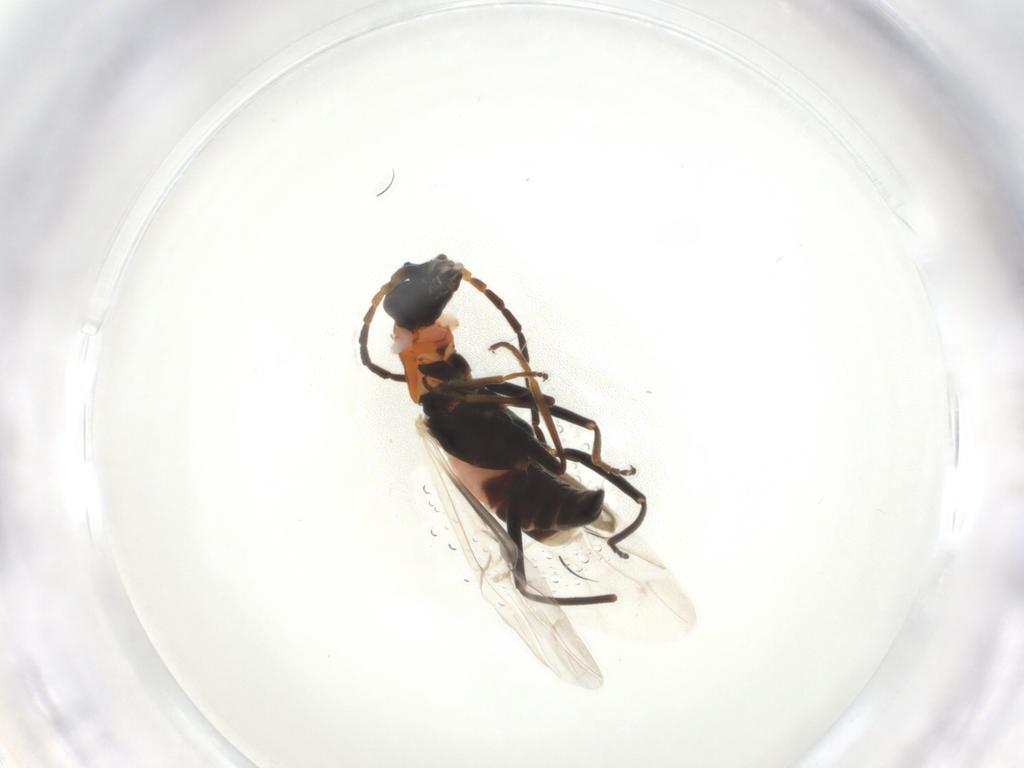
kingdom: Animalia
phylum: Arthropoda
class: Insecta
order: Coleoptera
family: Melyridae
